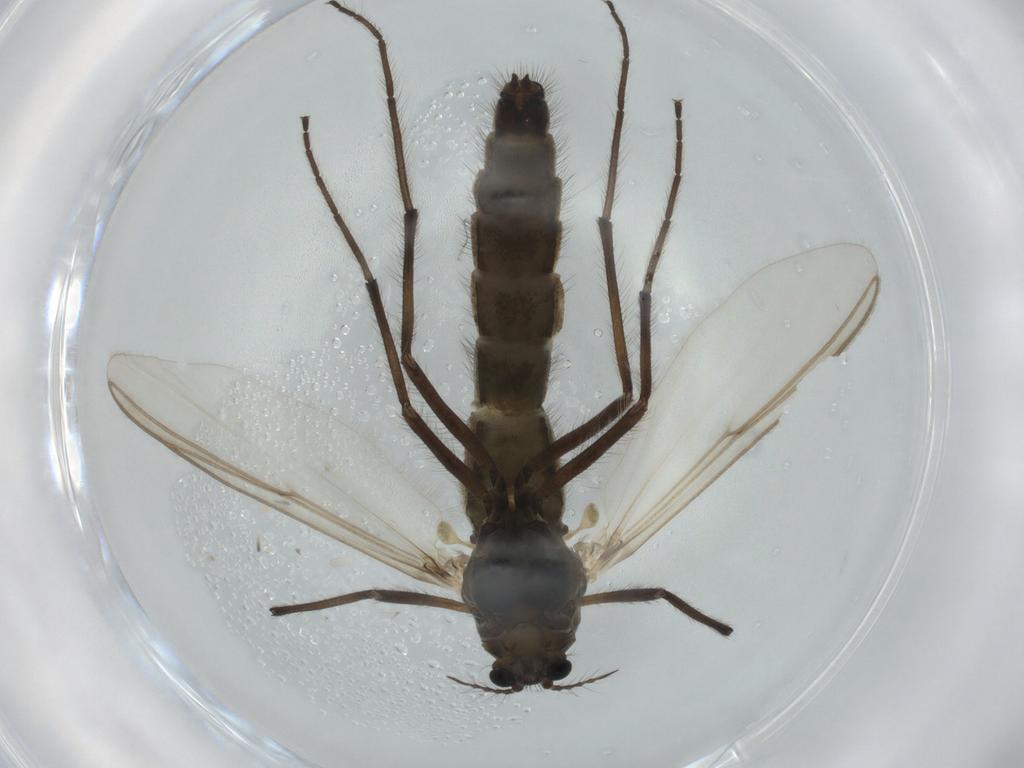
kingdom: Animalia
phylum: Arthropoda
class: Insecta
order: Diptera
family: Chironomidae
